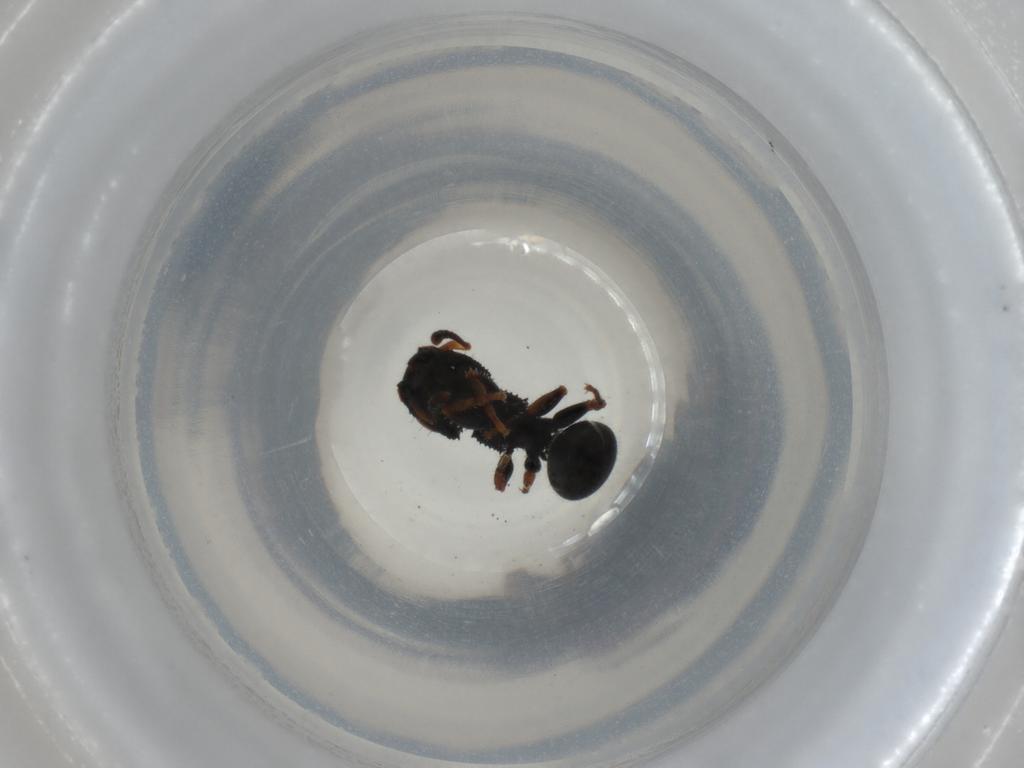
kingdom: Animalia
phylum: Arthropoda
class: Insecta
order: Hymenoptera
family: Formicidae
